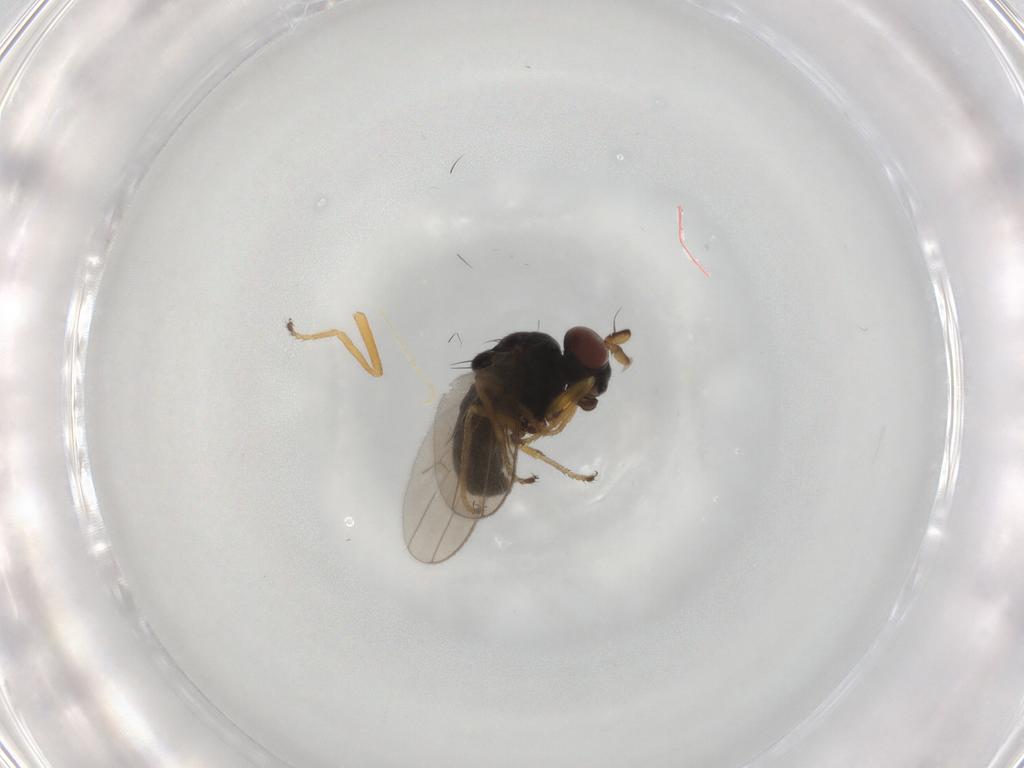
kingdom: Animalia
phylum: Arthropoda
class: Insecta
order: Diptera
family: Ephydridae
